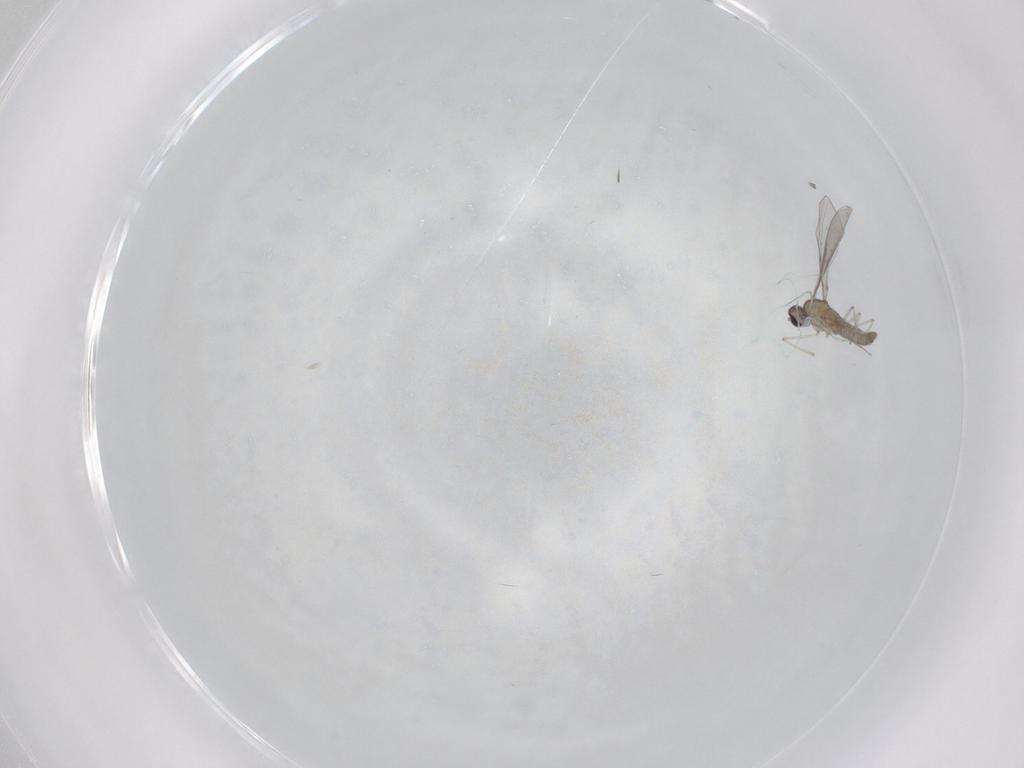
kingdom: Animalia
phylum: Arthropoda
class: Insecta
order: Diptera
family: Cecidomyiidae
